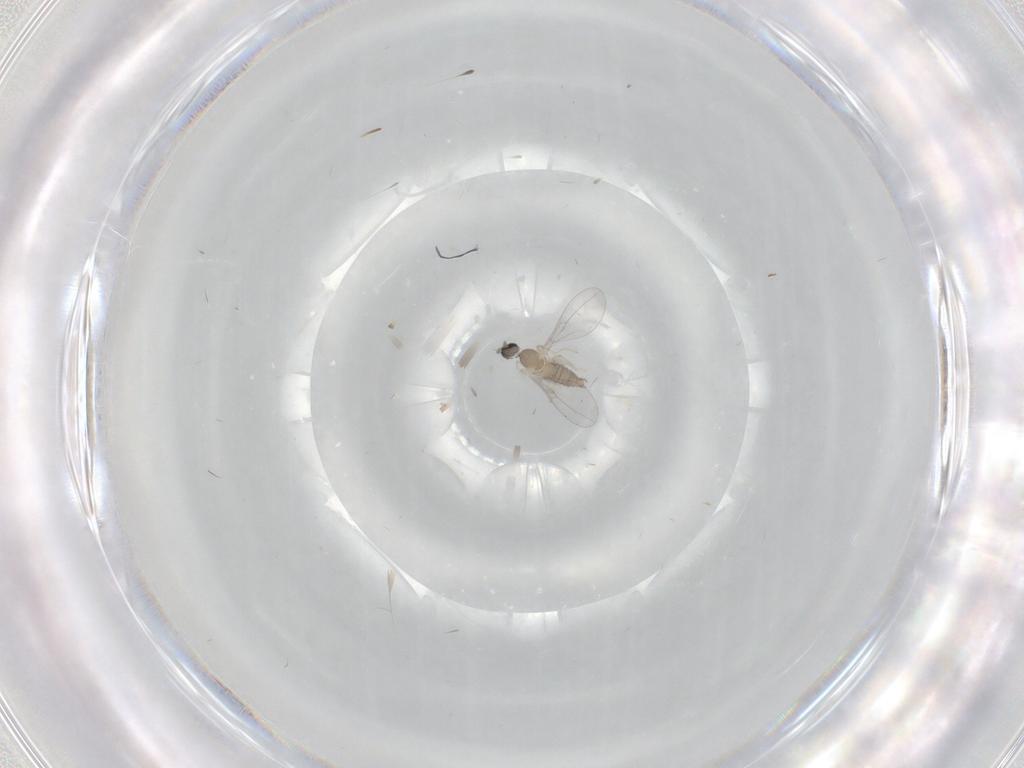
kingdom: Animalia
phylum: Arthropoda
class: Insecta
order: Diptera
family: Cecidomyiidae
